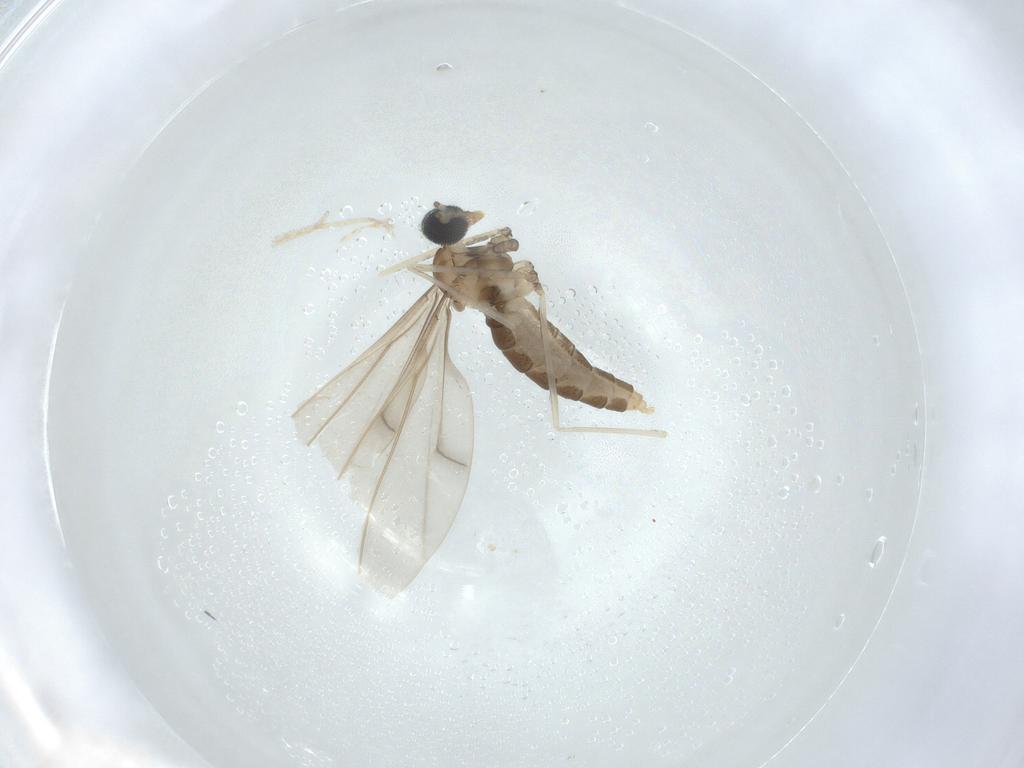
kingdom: Animalia
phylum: Arthropoda
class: Insecta
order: Diptera
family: Cecidomyiidae
